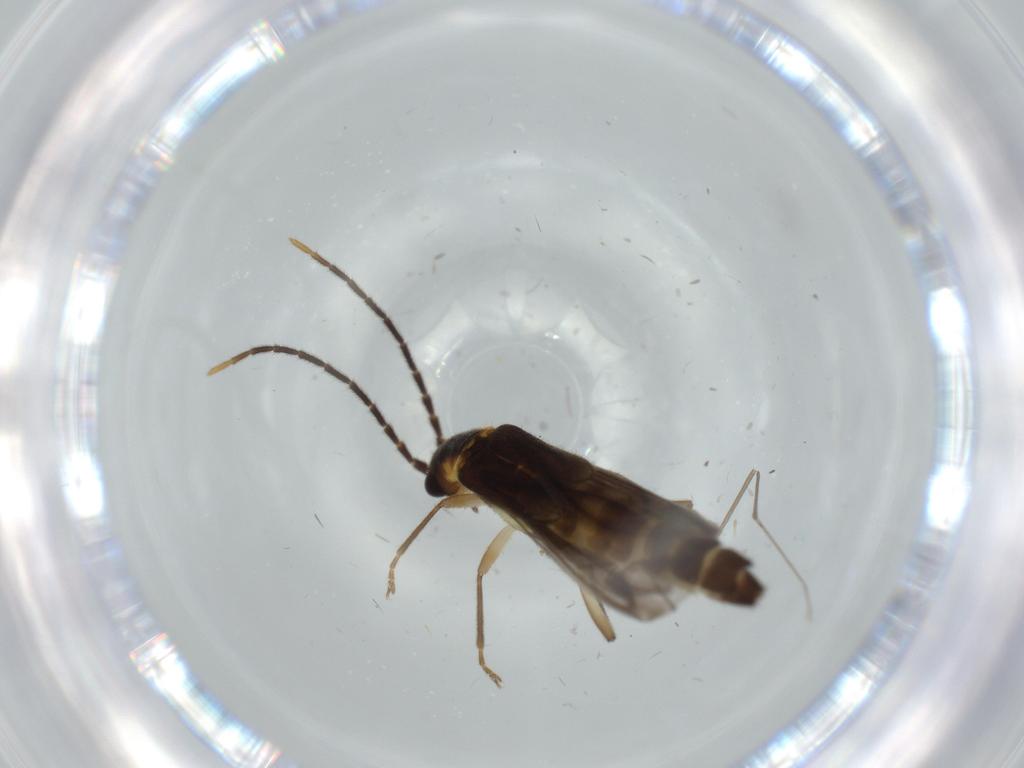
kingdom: Animalia
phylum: Arthropoda
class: Insecta
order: Coleoptera
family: Cantharidae
